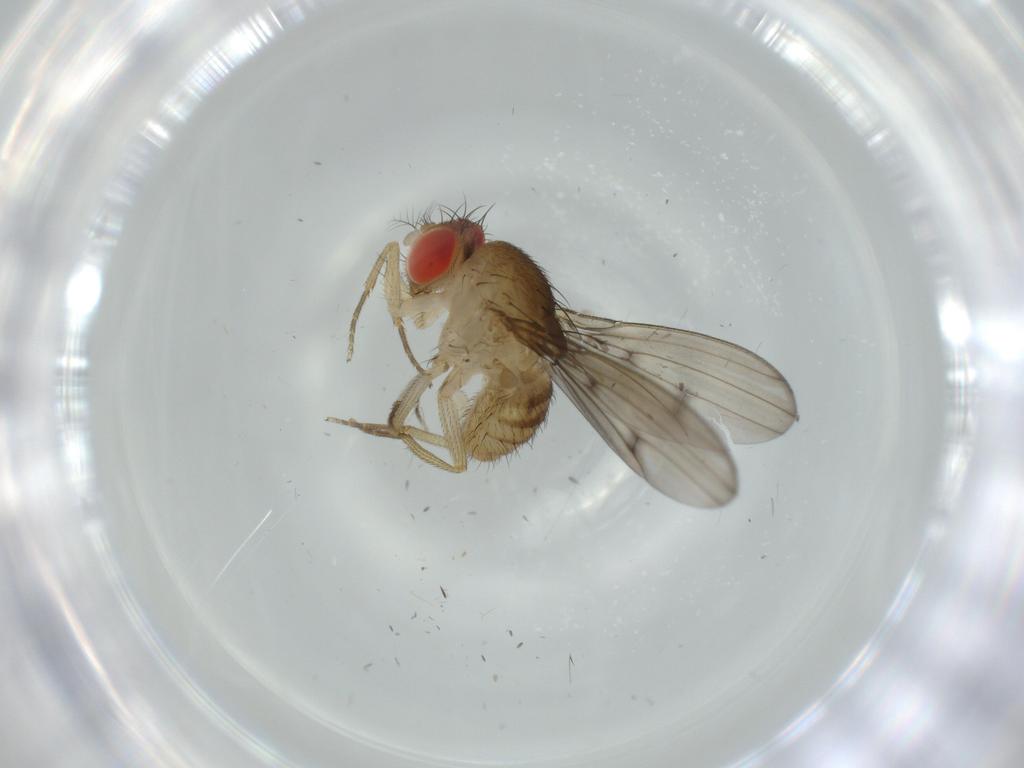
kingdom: Animalia
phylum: Arthropoda
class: Insecta
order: Diptera
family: Drosophilidae
